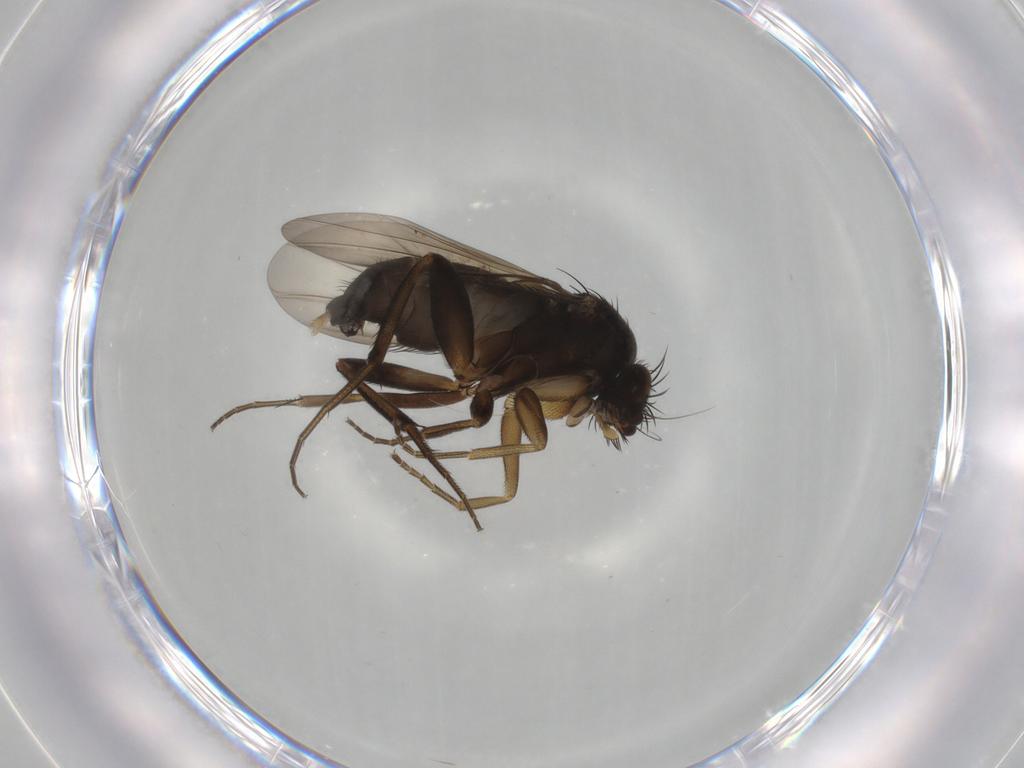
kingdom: Animalia
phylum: Arthropoda
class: Insecta
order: Diptera
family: Phoridae
